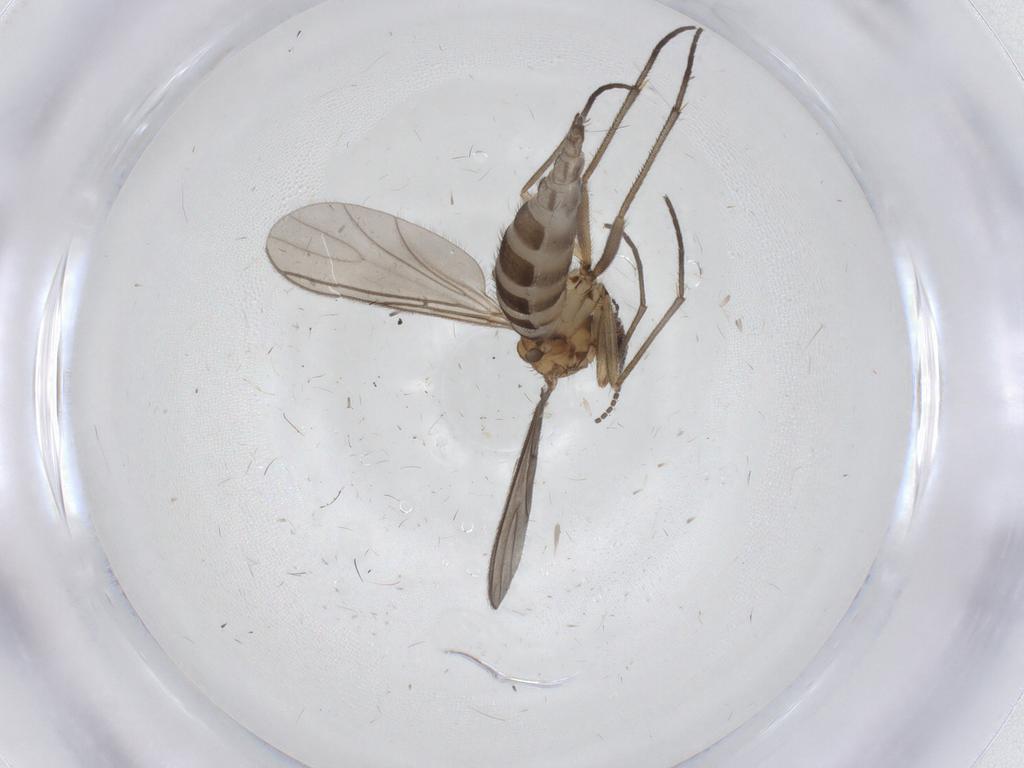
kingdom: Animalia
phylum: Arthropoda
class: Insecta
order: Diptera
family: Sciaridae
